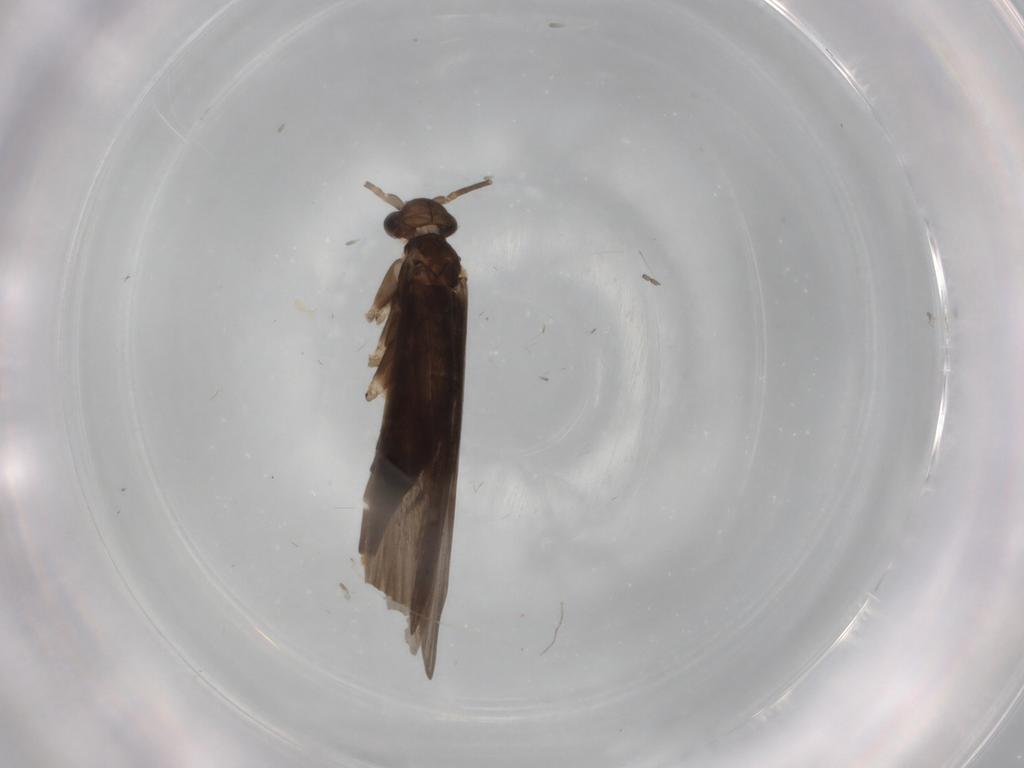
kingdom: Animalia
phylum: Arthropoda
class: Insecta
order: Trichoptera
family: Xiphocentronidae
